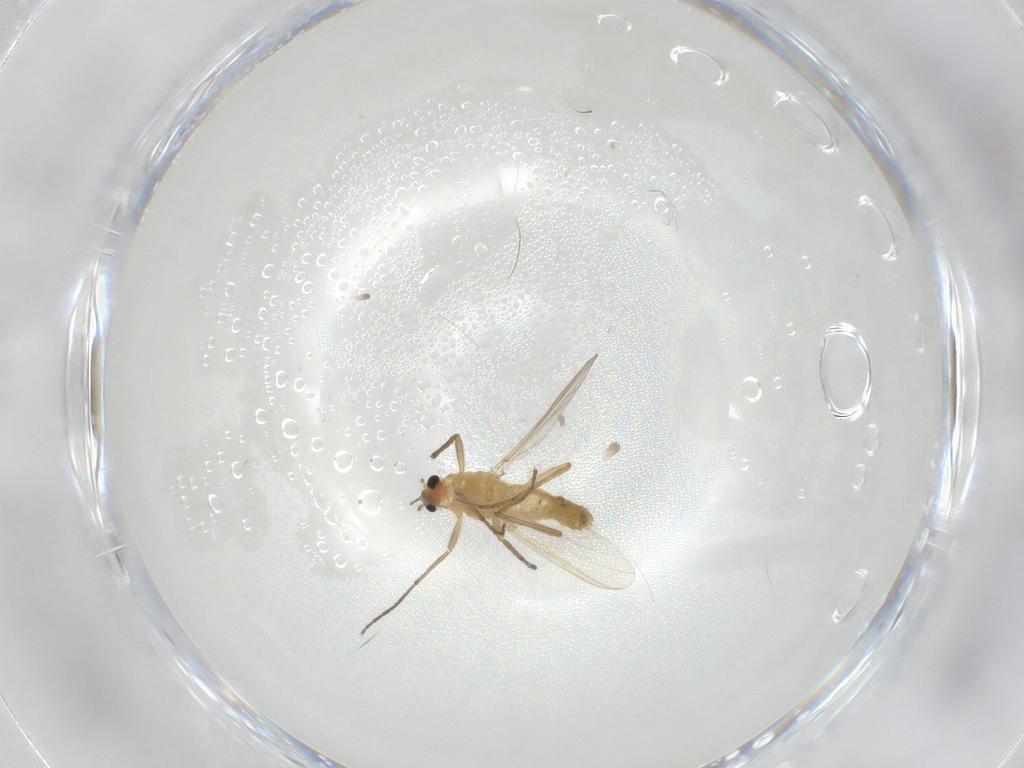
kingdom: Animalia
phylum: Arthropoda
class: Insecta
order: Diptera
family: Chironomidae
